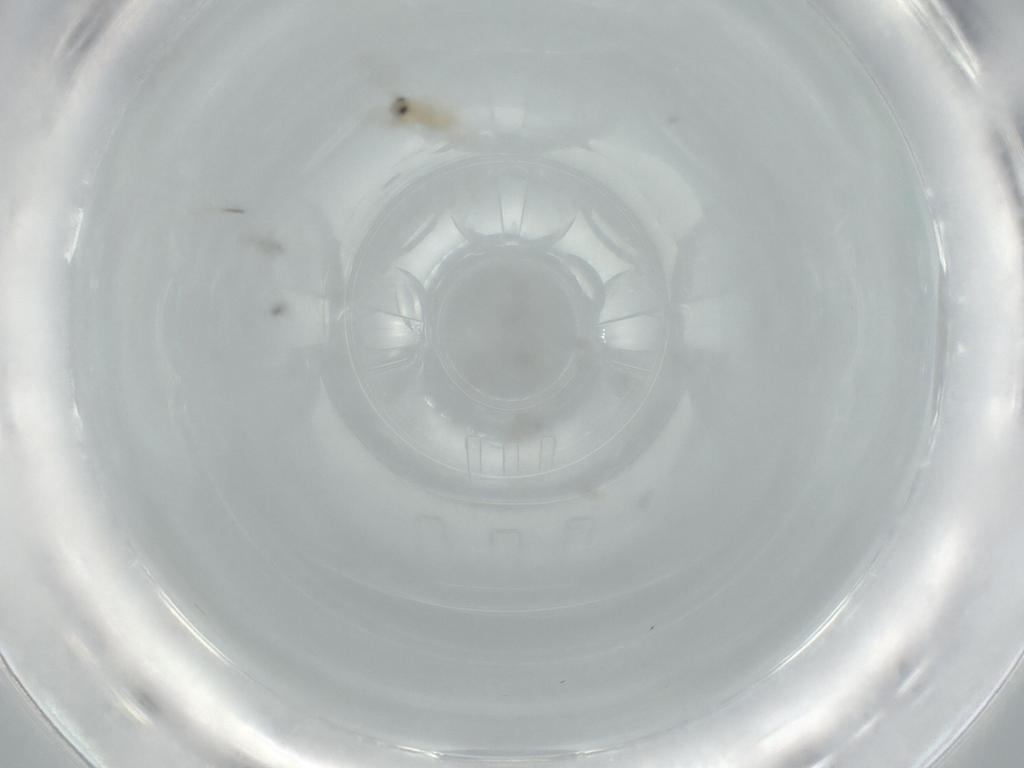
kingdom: Animalia
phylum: Arthropoda
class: Insecta
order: Diptera
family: Cecidomyiidae
